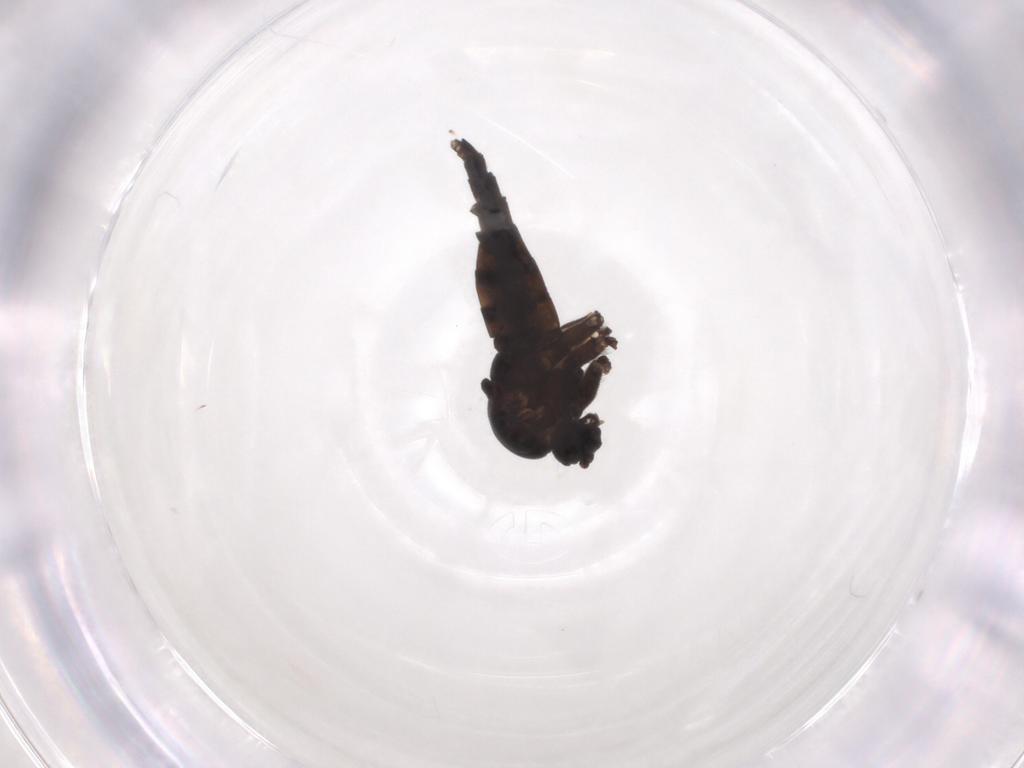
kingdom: Animalia
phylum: Arthropoda
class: Insecta
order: Diptera
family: Sciaridae
